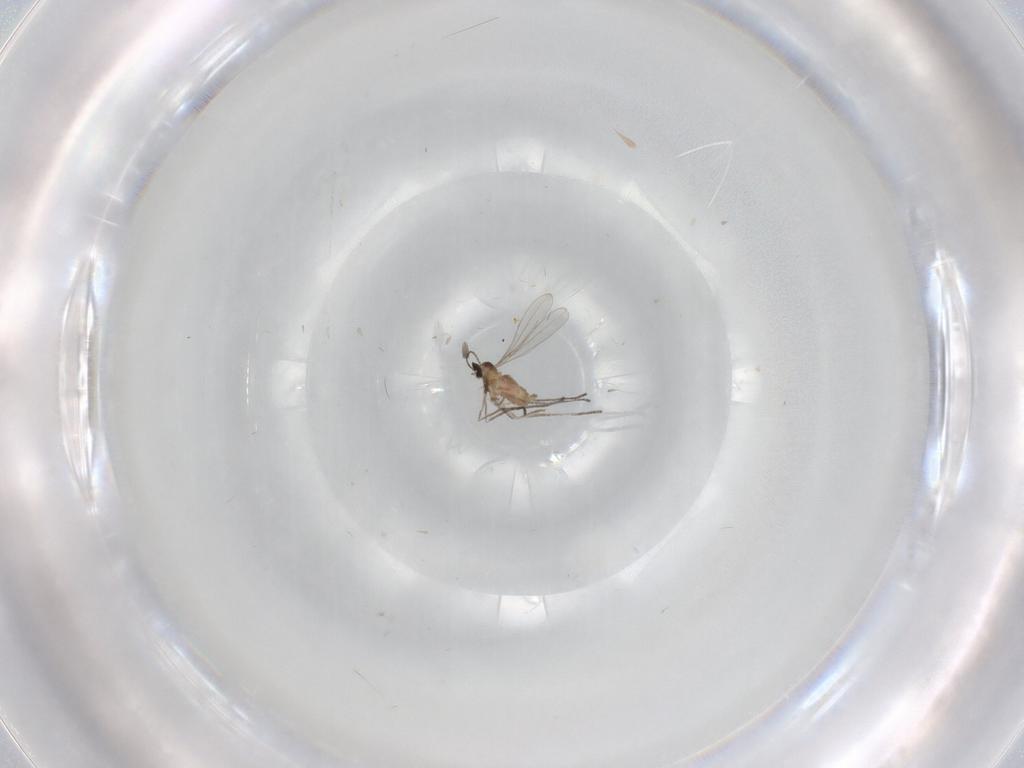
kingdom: Animalia
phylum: Arthropoda
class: Insecta
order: Diptera
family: Cecidomyiidae
